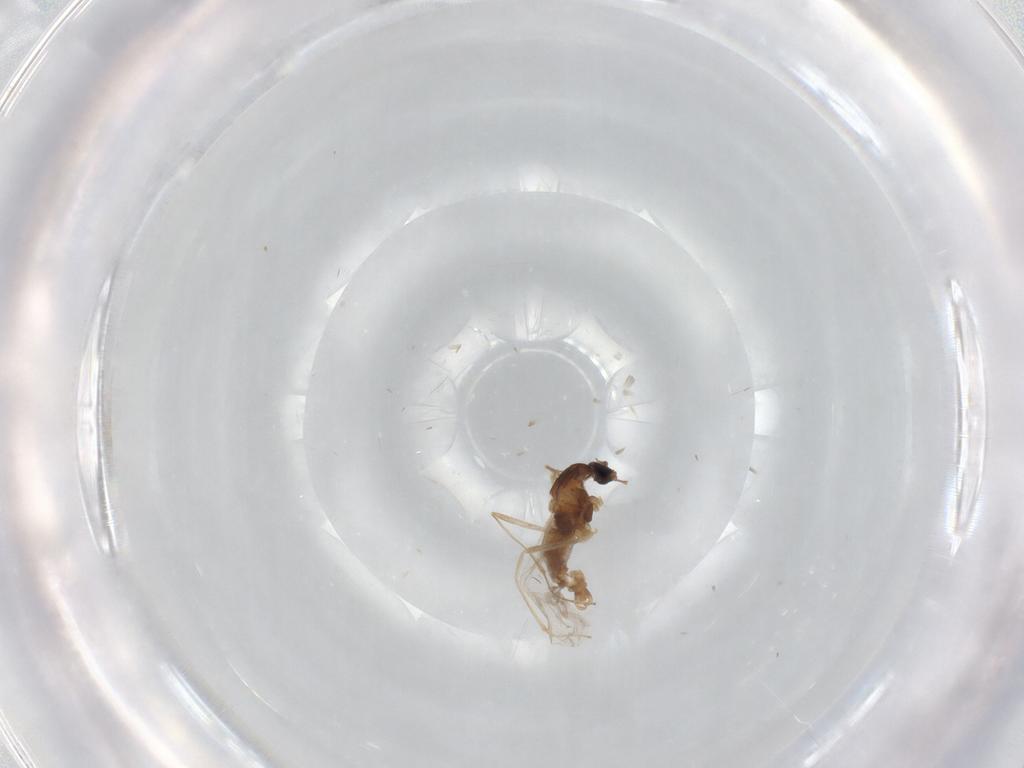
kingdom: Animalia
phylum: Arthropoda
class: Insecta
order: Diptera
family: Cecidomyiidae
